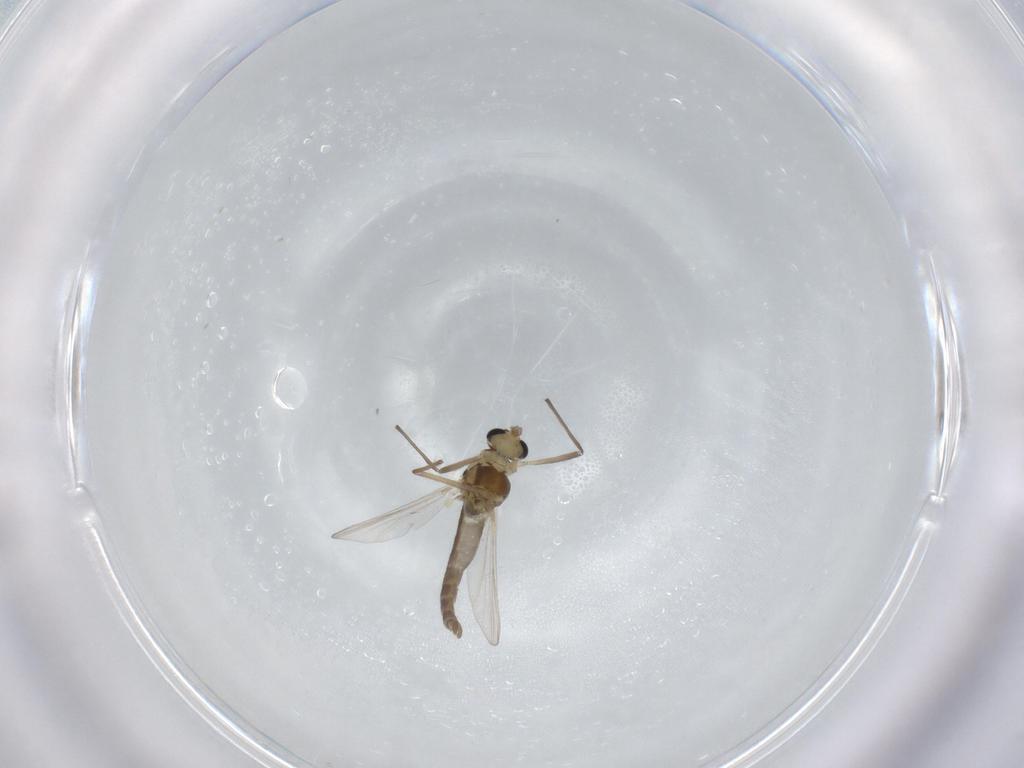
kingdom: Animalia
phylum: Arthropoda
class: Insecta
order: Diptera
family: Chironomidae
